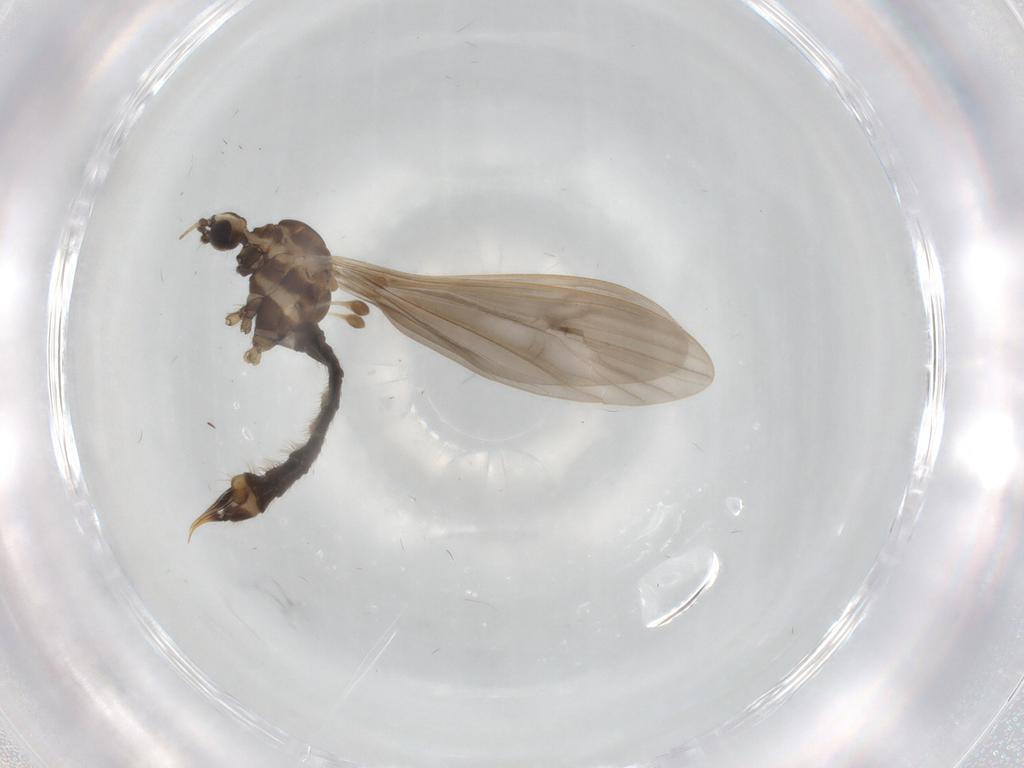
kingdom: Animalia
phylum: Arthropoda
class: Insecta
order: Diptera
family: Limoniidae
